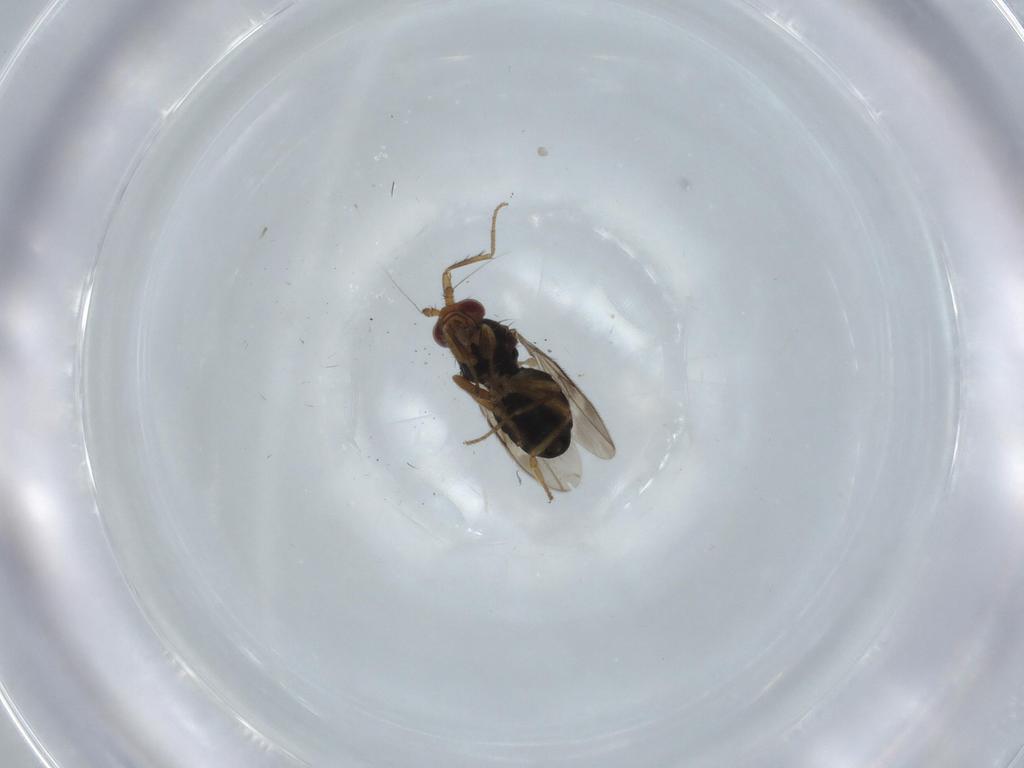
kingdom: Animalia
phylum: Arthropoda
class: Insecta
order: Diptera
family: Sphaeroceridae
